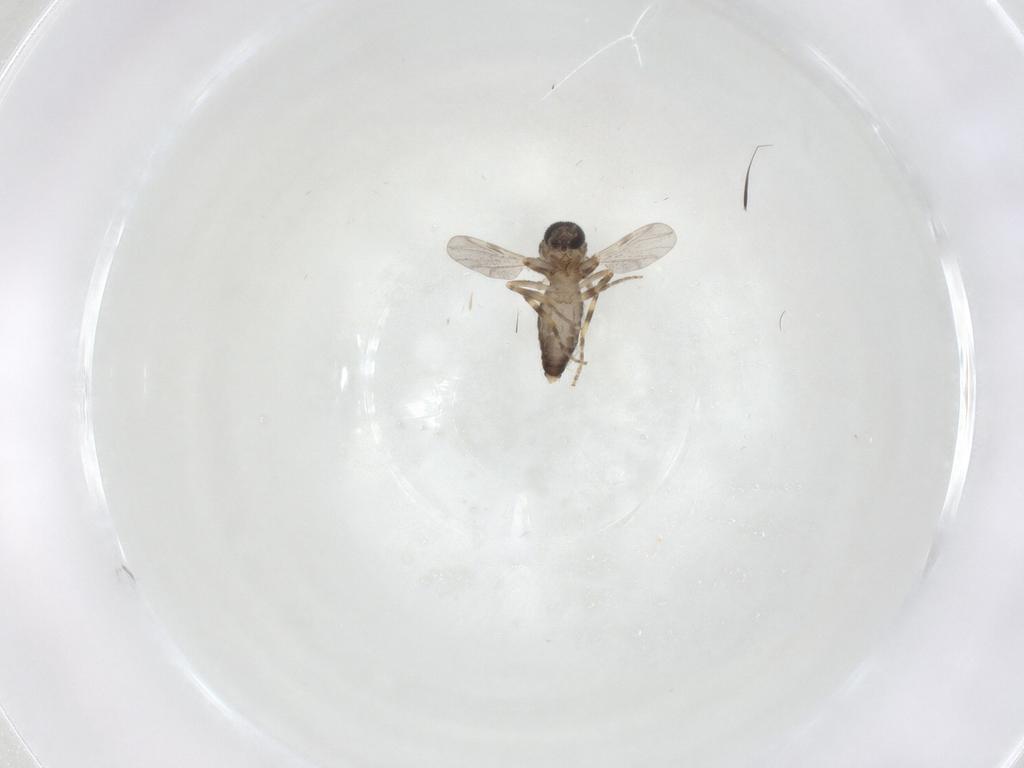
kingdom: Animalia
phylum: Arthropoda
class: Insecta
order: Diptera
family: Ceratopogonidae
